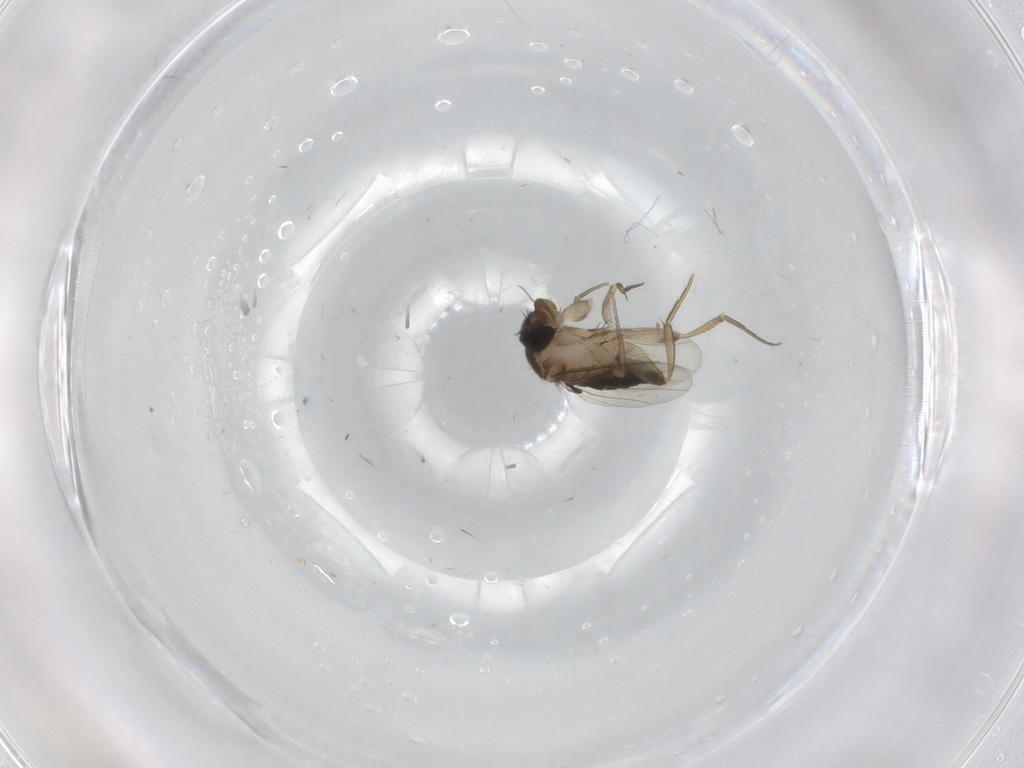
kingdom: Animalia
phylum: Arthropoda
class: Insecta
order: Diptera
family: Phoridae
